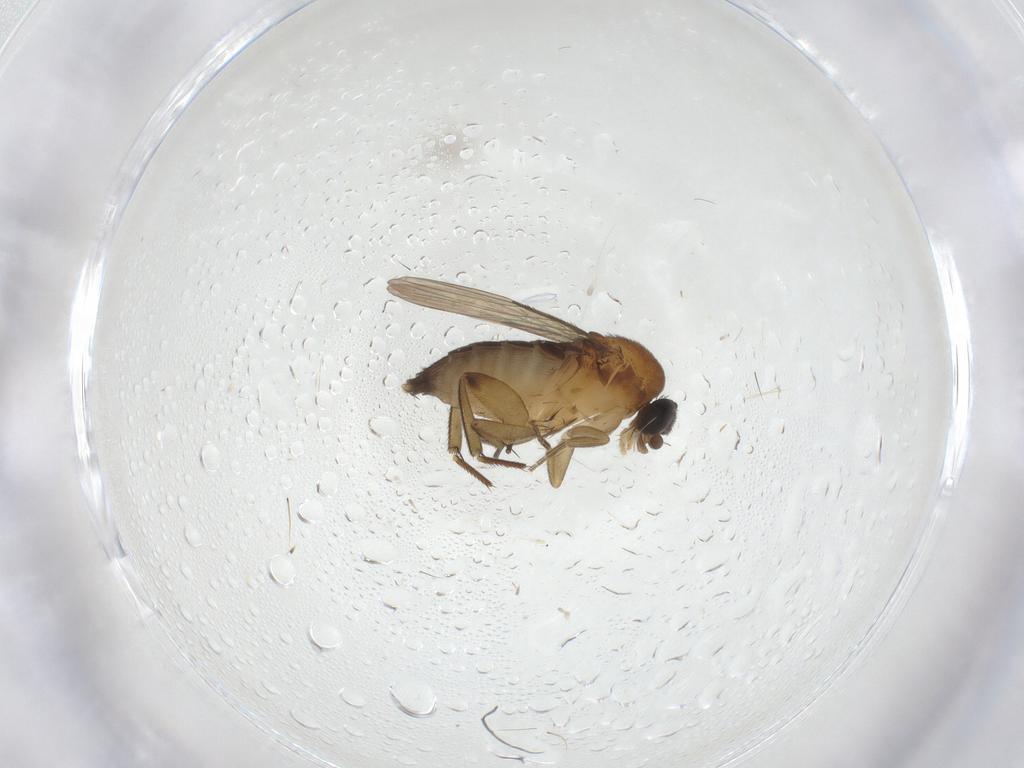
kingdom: Animalia
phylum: Arthropoda
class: Insecta
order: Diptera
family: Phoridae
